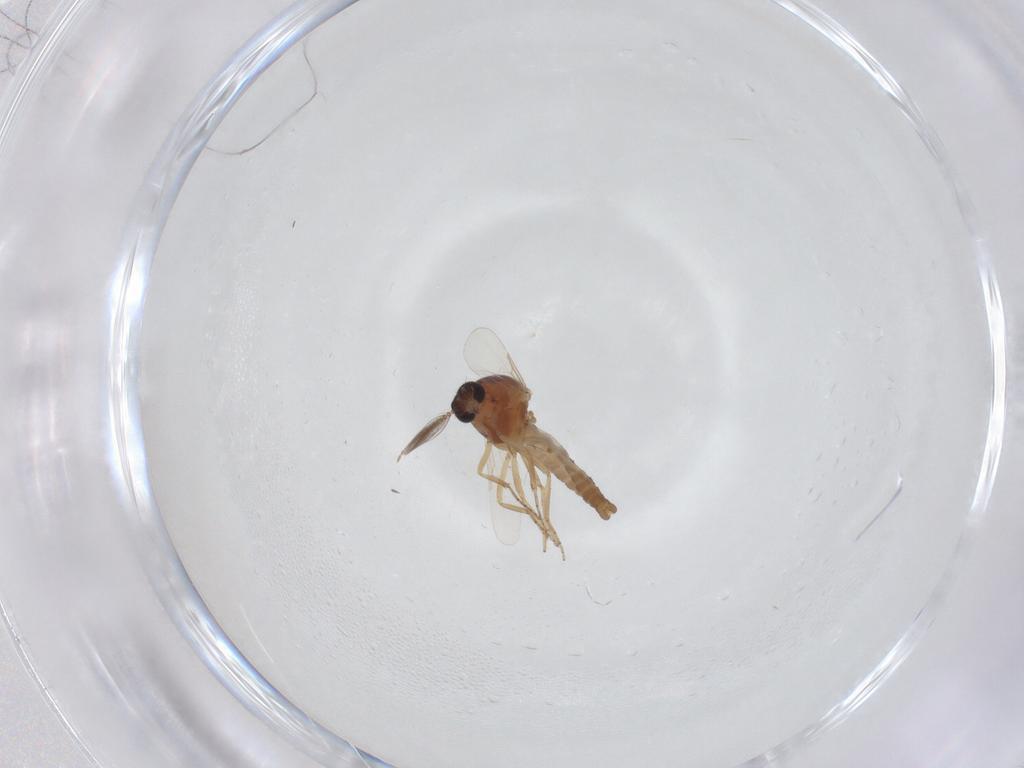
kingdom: Animalia
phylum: Arthropoda
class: Insecta
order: Diptera
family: Ceratopogonidae
